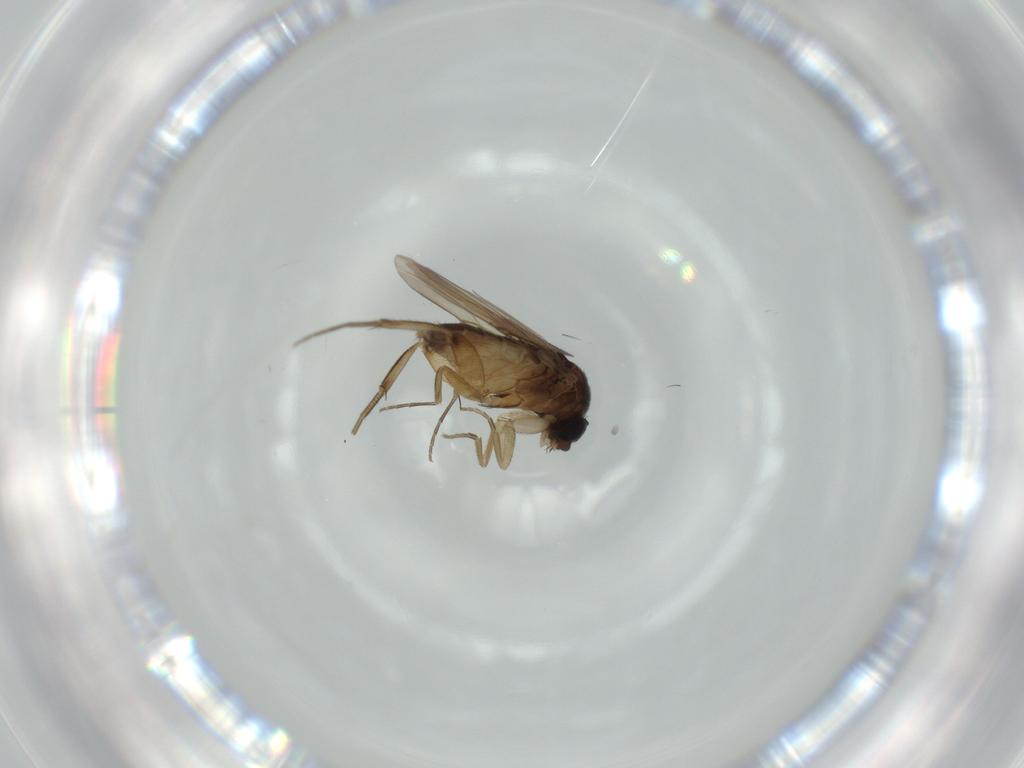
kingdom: Animalia
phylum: Arthropoda
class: Insecta
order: Diptera
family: Phoridae
